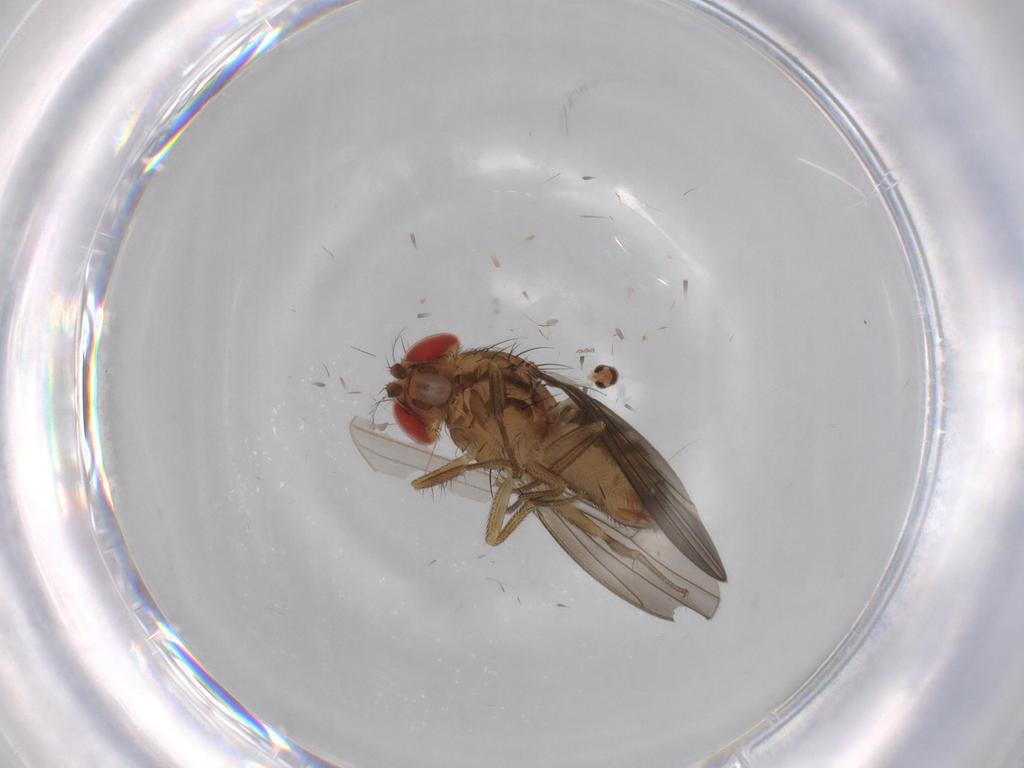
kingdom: Animalia
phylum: Arthropoda
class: Insecta
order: Diptera
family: Drosophilidae
